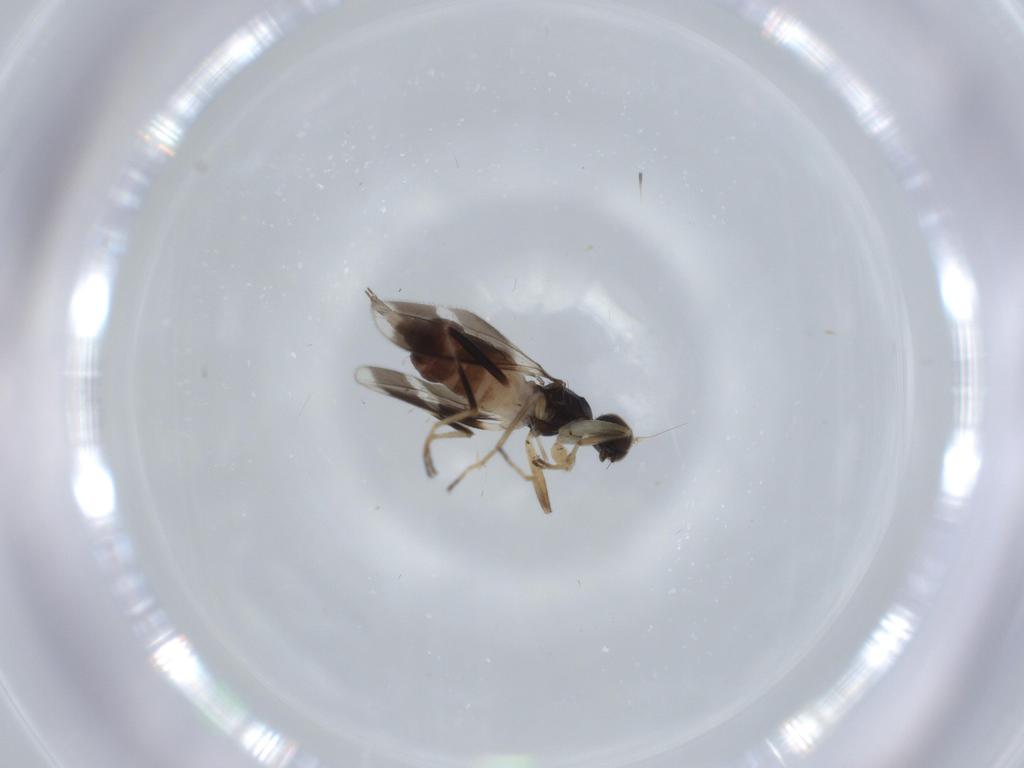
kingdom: Animalia
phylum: Arthropoda
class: Insecta
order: Diptera
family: Hybotidae
